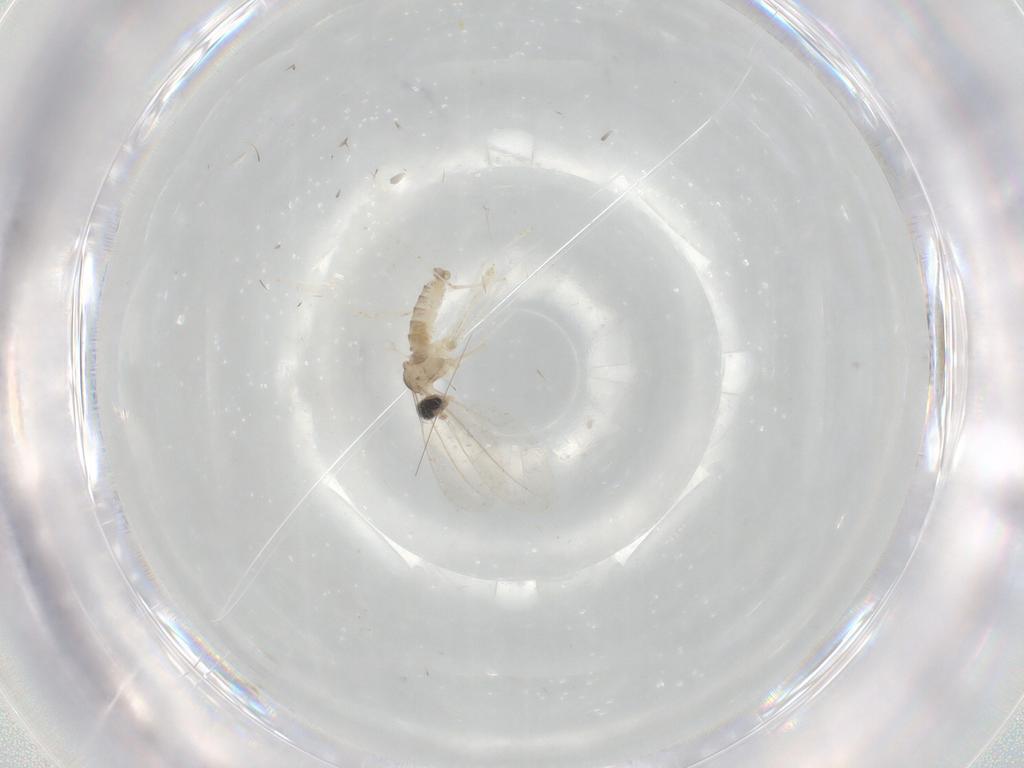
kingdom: Animalia
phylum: Arthropoda
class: Insecta
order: Diptera
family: Cecidomyiidae
